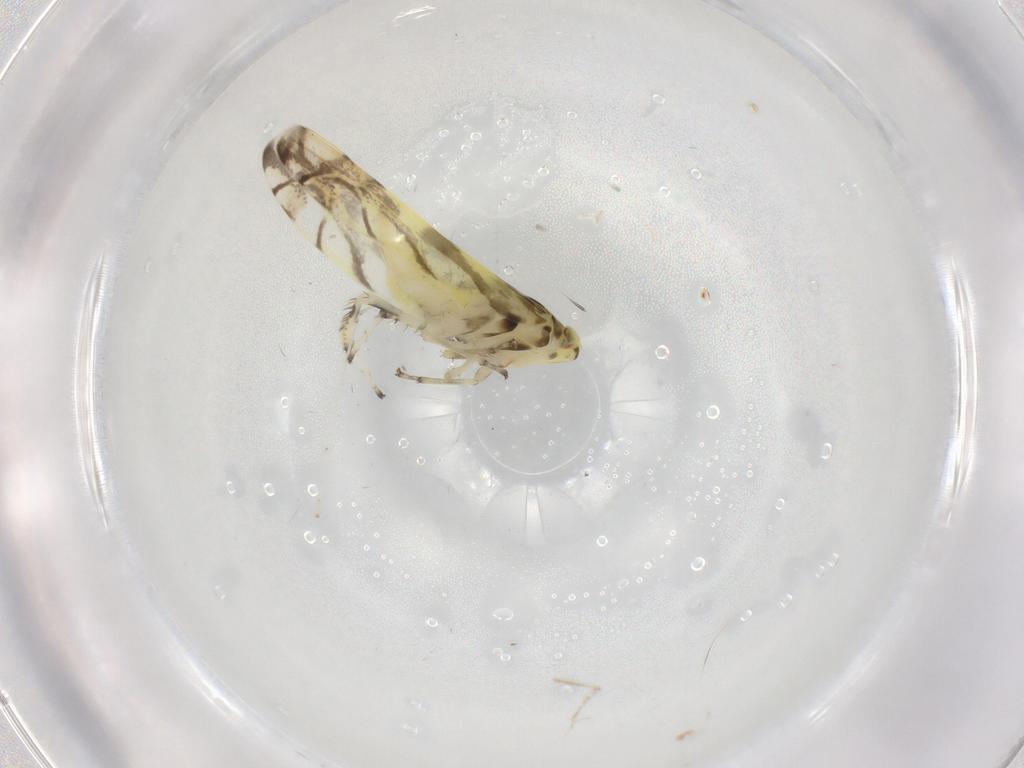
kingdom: Animalia
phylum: Arthropoda
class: Insecta
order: Hemiptera
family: Cicadellidae
